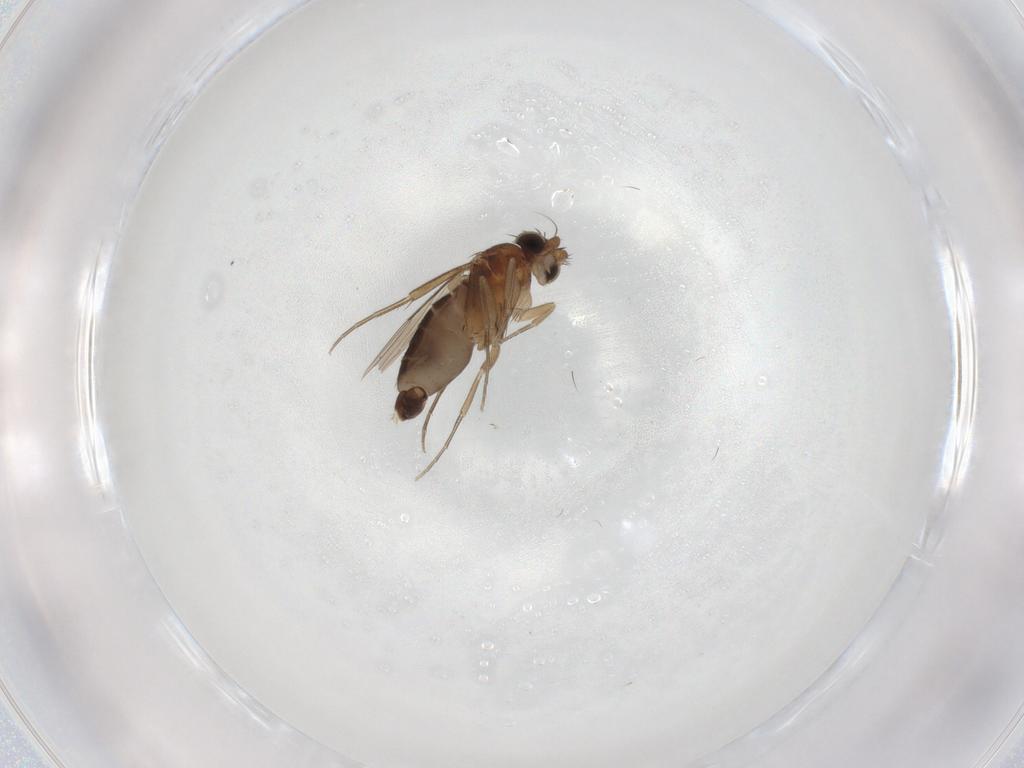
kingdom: Animalia
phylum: Arthropoda
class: Insecta
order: Diptera
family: Phoridae
